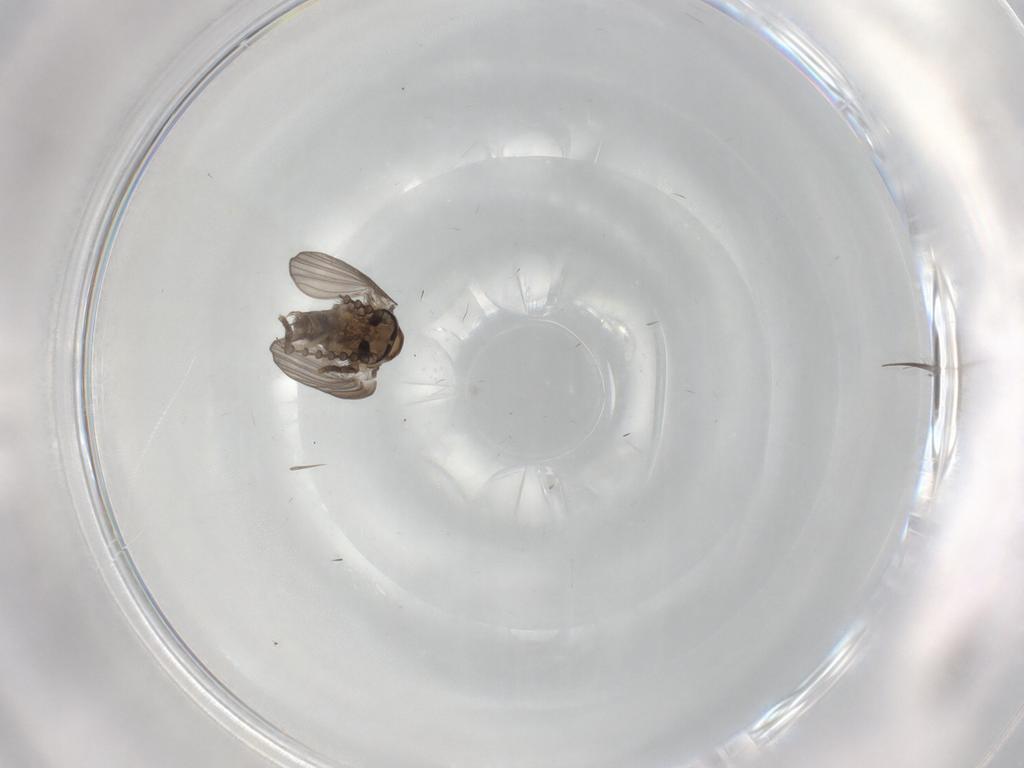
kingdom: Animalia
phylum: Arthropoda
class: Insecta
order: Diptera
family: Psychodidae
